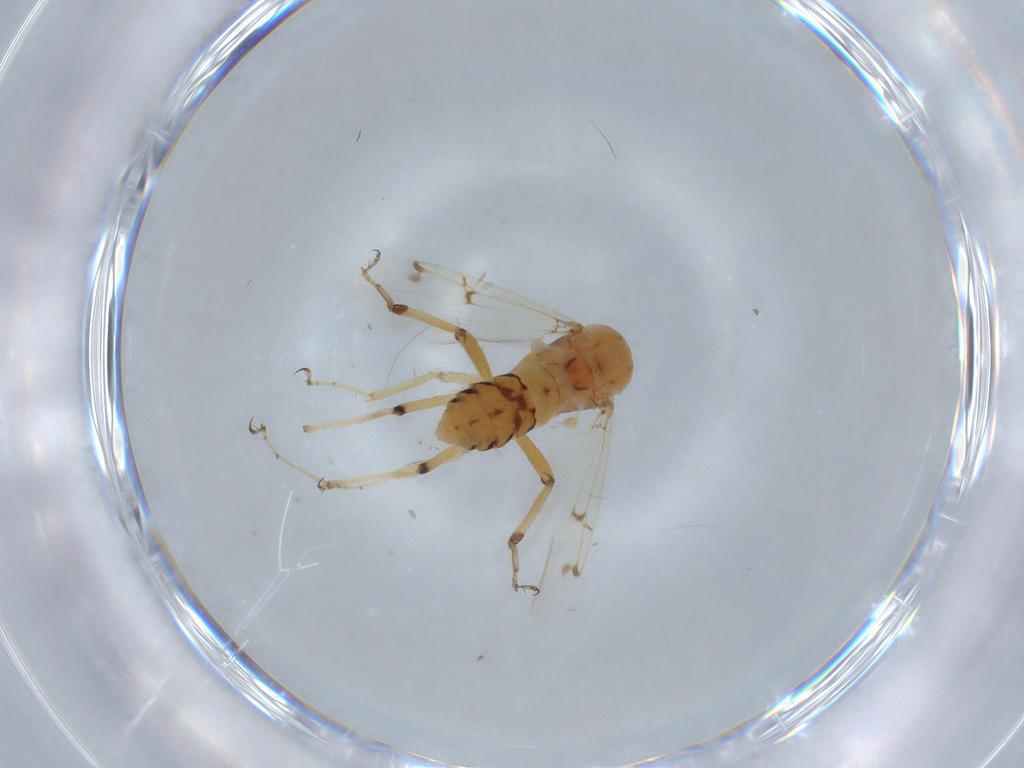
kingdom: Animalia
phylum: Arthropoda
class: Insecta
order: Diptera
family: Ceratopogonidae
